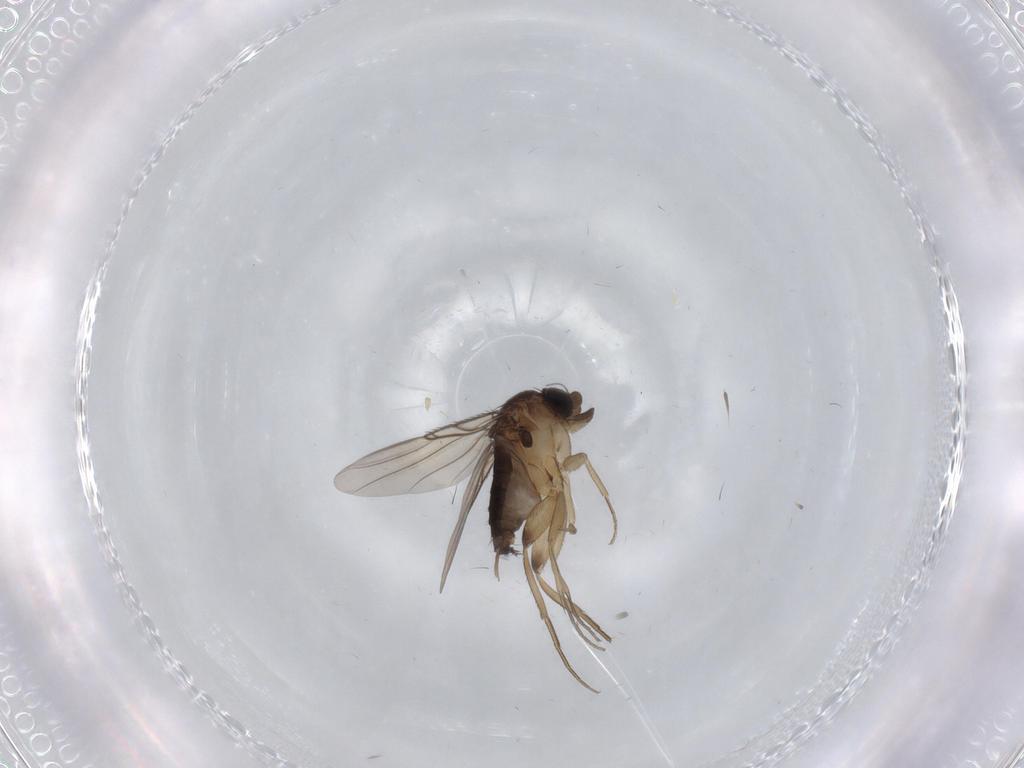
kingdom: Animalia
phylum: Arthropoda
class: Insecta
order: Diptera
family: Phoridae
